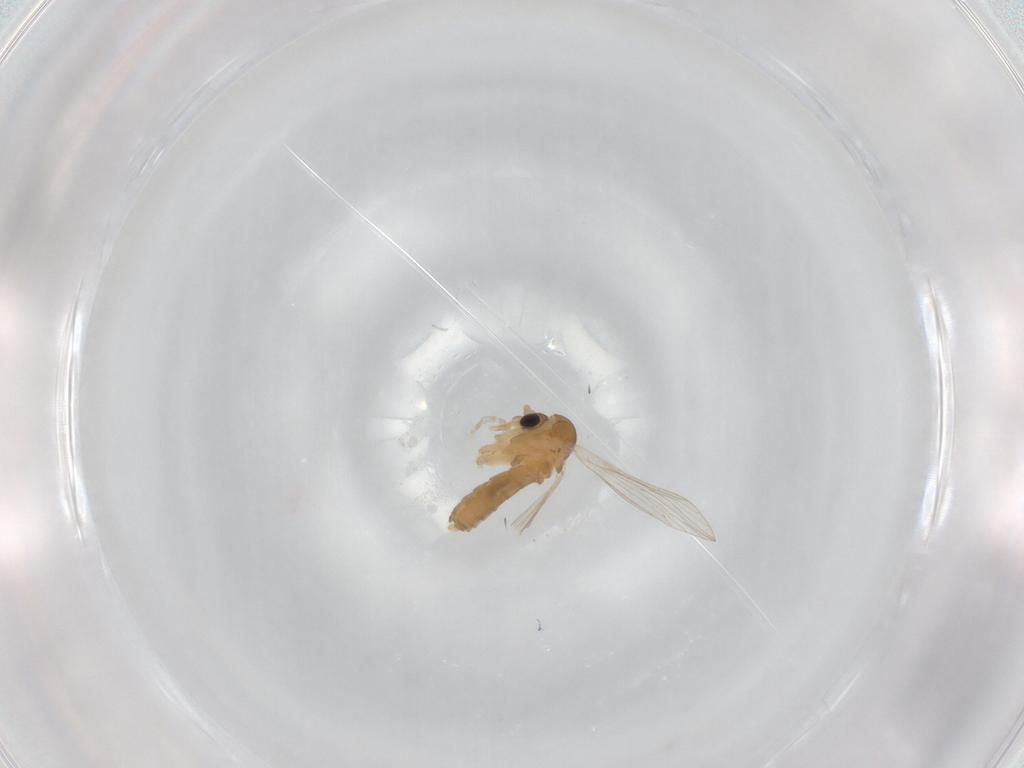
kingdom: Animalia
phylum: Arthropoda
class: Insecta
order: Diptera
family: Psychodidae
